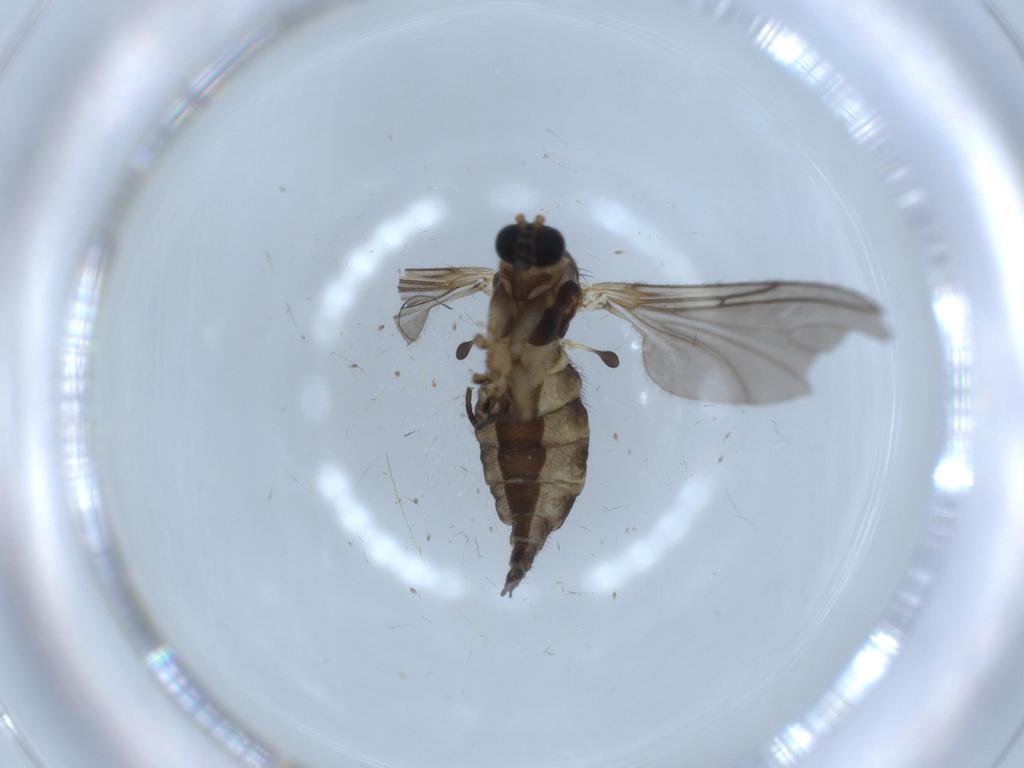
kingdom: Animalia
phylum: Arthropoda
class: Insecta
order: Diptera
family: Sciaridae
